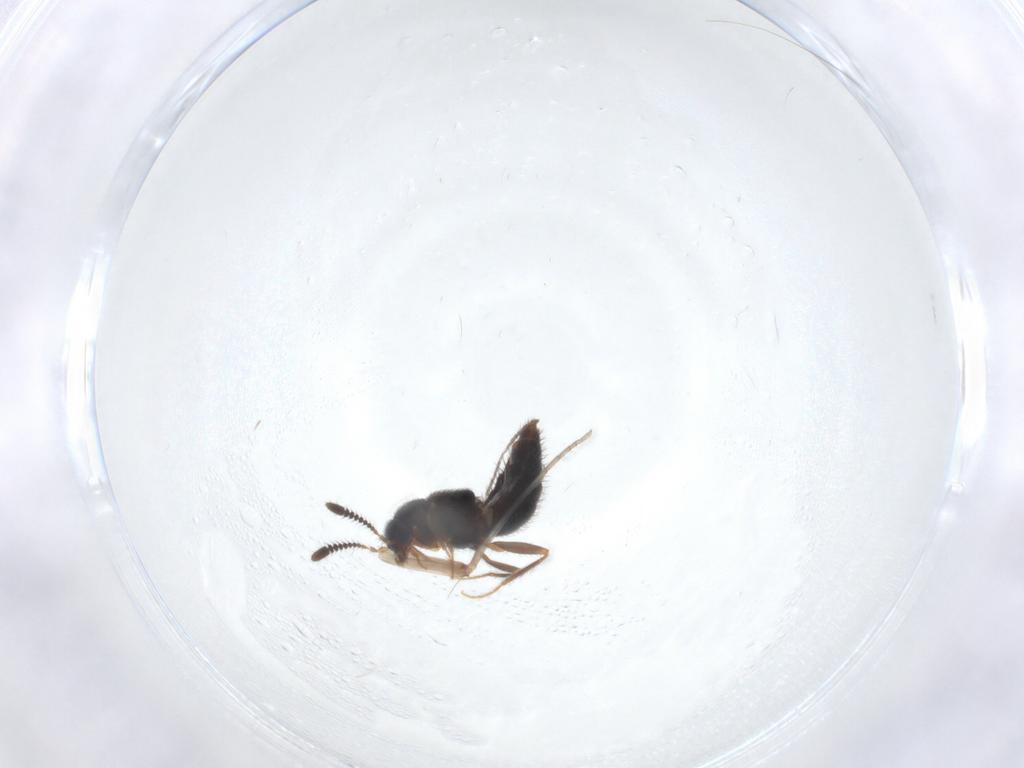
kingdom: Animalia
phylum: Arthropoda
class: Insecta
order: Coleoptera
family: Staphylinidae
